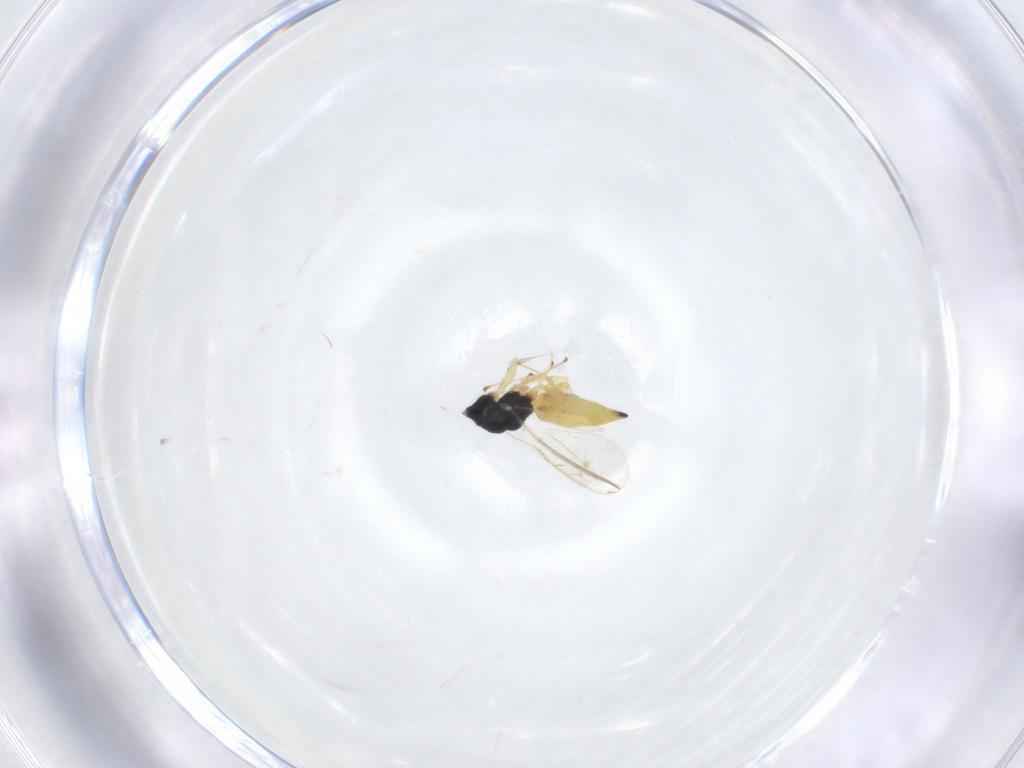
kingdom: Animalia
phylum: Arthropoda
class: Insecta
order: Hymenoptera
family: Pteromalidae
